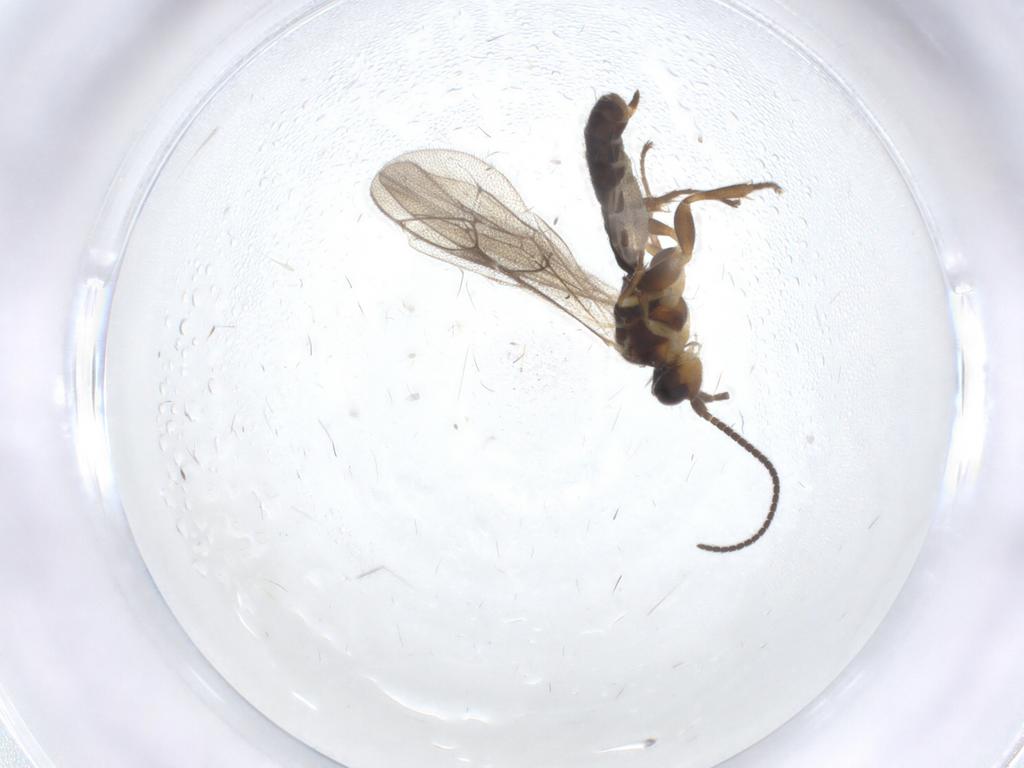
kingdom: Animalia
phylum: Arthropoda
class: Insecta
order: Hymenoptera
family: Ichneumonidae
